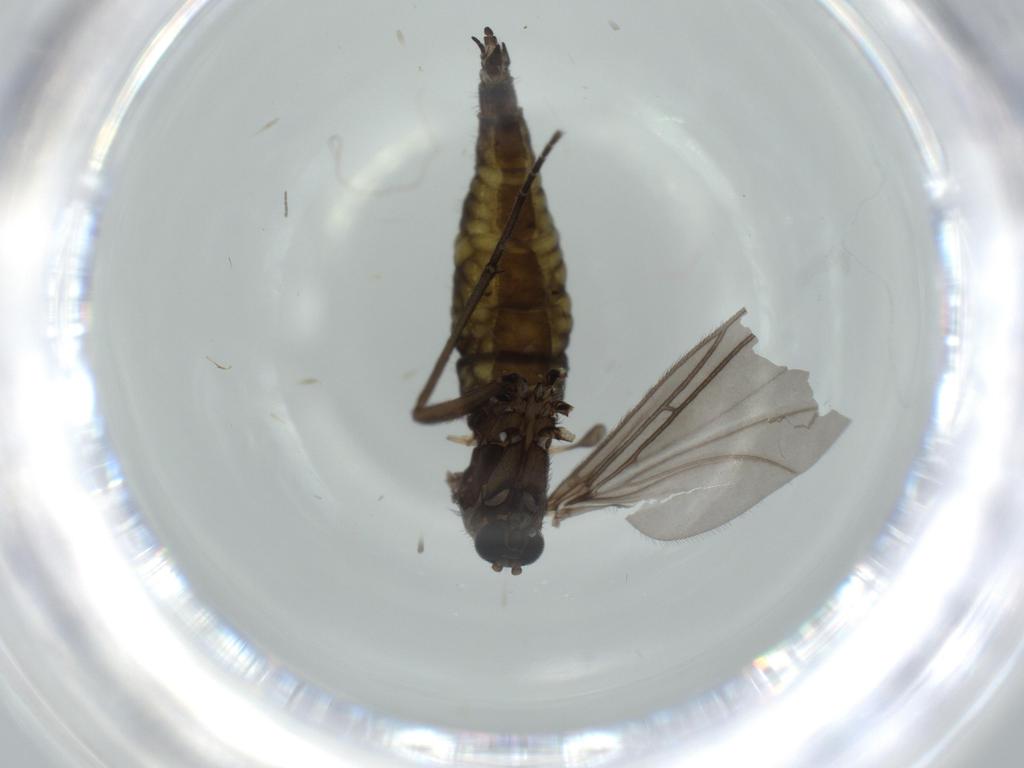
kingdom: Animalia
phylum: Arthropoda
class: Insecta
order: Diptera
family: Sciaridae
